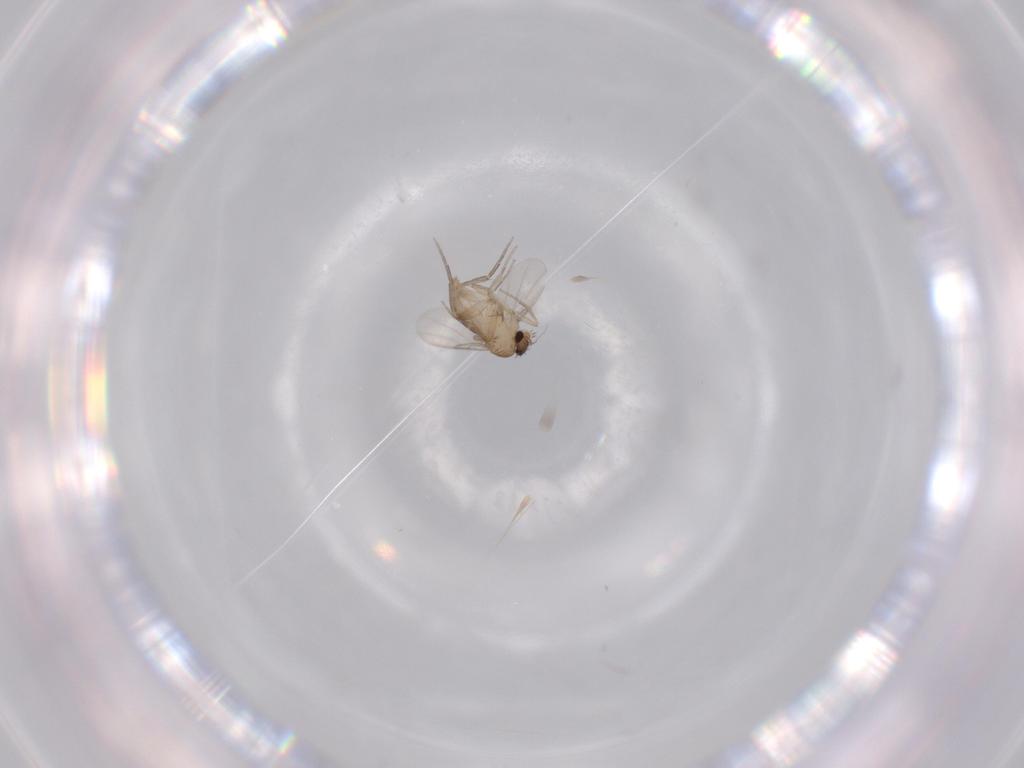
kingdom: Animalia
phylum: Arthropoda
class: Insecta
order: Diptera
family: Phoridae
